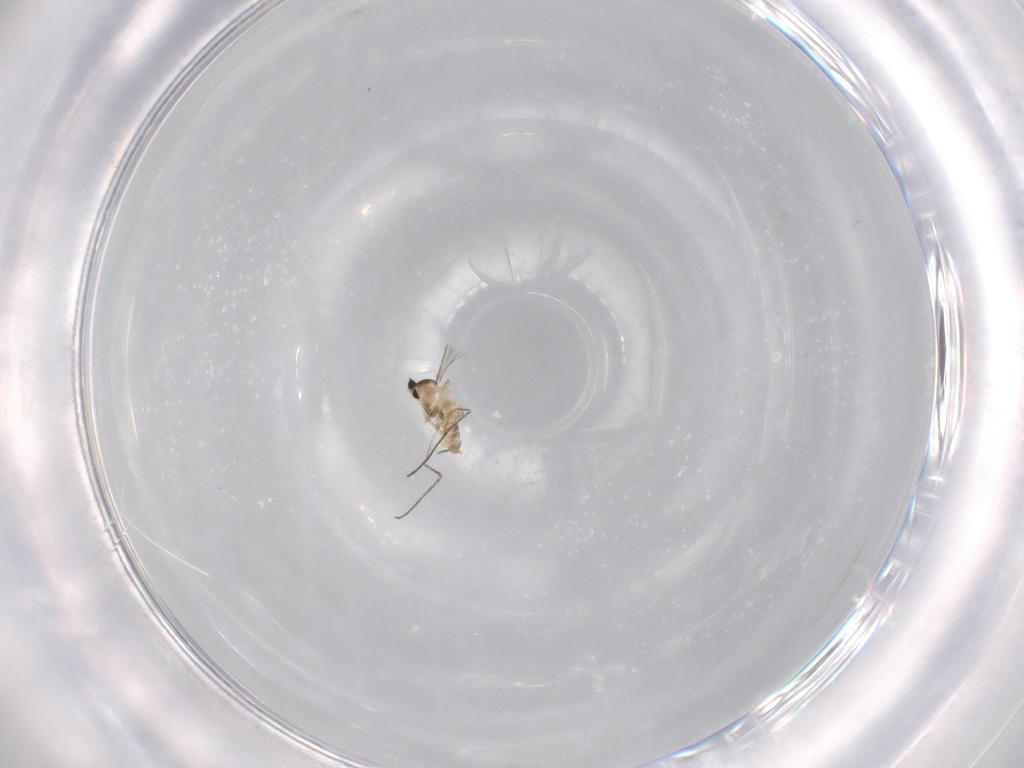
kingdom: Animalia
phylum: Arthropoda
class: Insecta
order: Diptera
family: Cecidomyiidae
